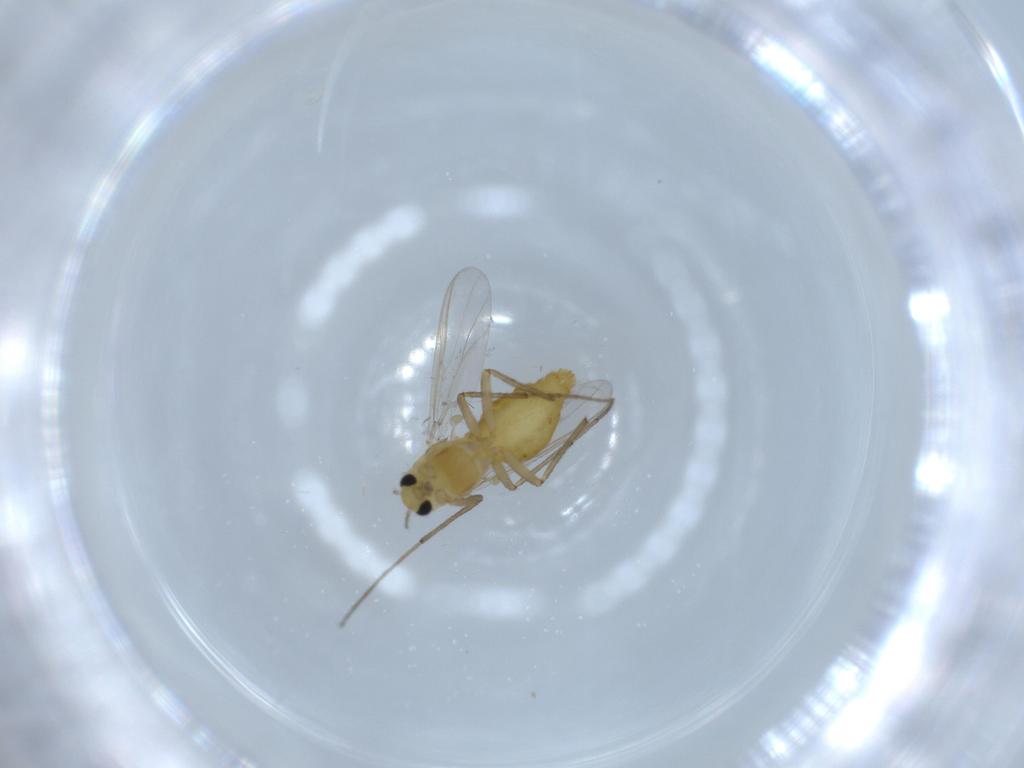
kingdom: Animalia
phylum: Arthropoda
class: Insecta
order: Diptera
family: Chironomidae
